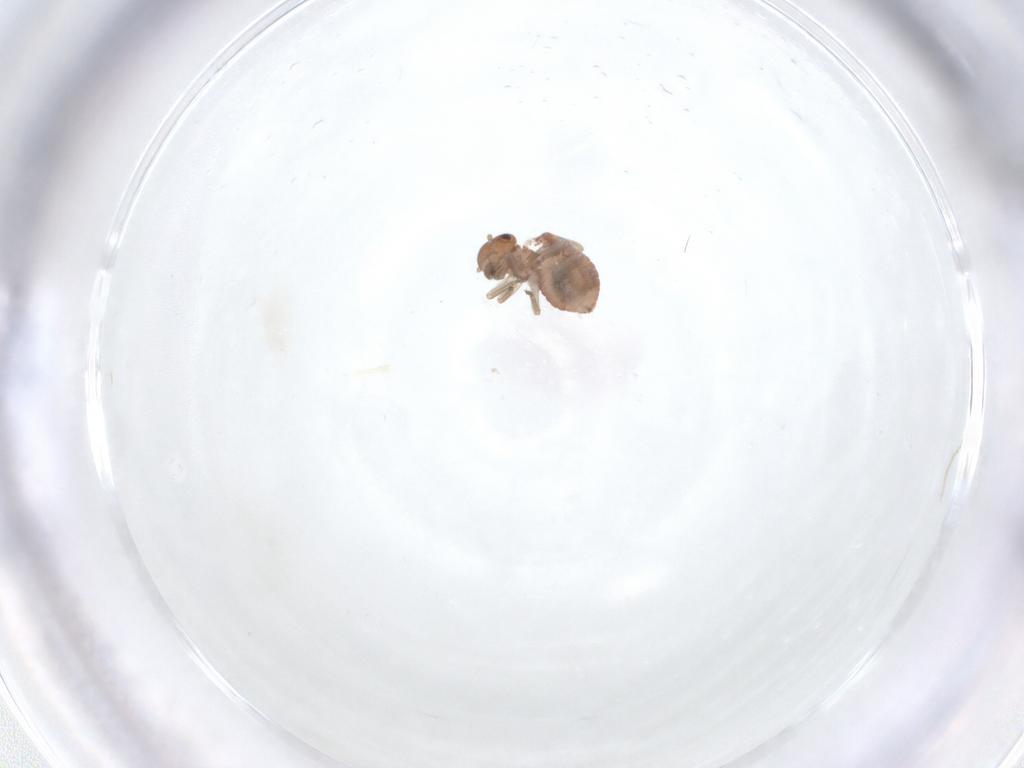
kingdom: Animalia
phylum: Arthropoda
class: Insecta
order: Psocodea
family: Lachesillidae
